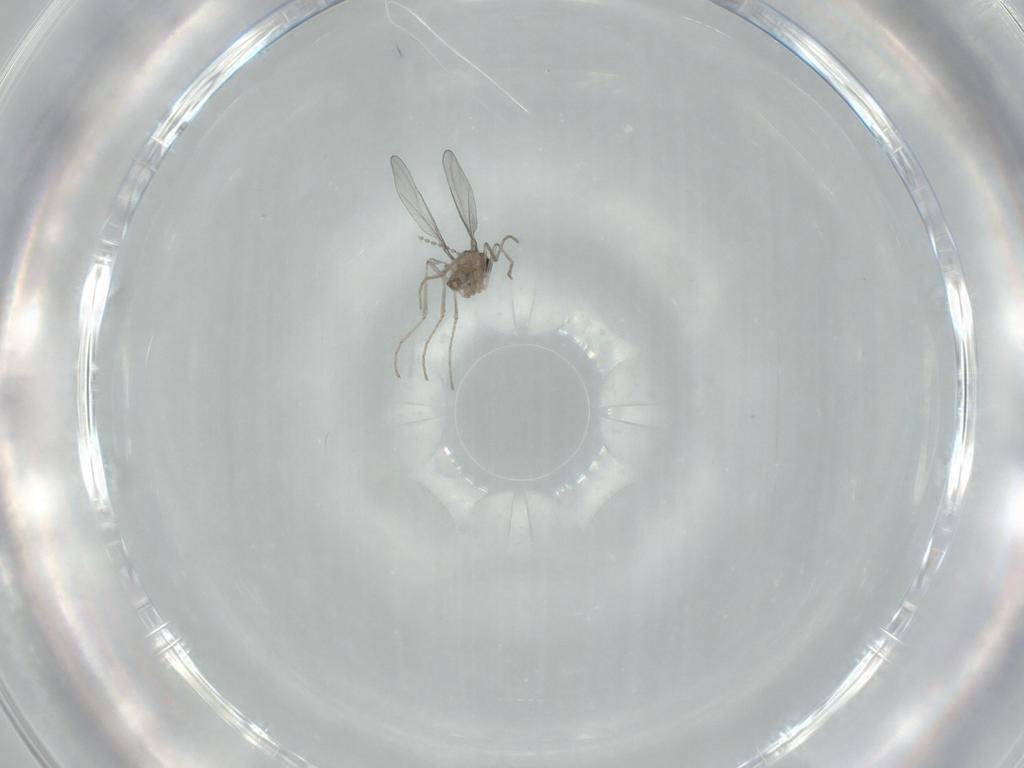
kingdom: Animalia
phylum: Arthropoda
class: Insecta
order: Diptera
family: Cecidomyiidae
